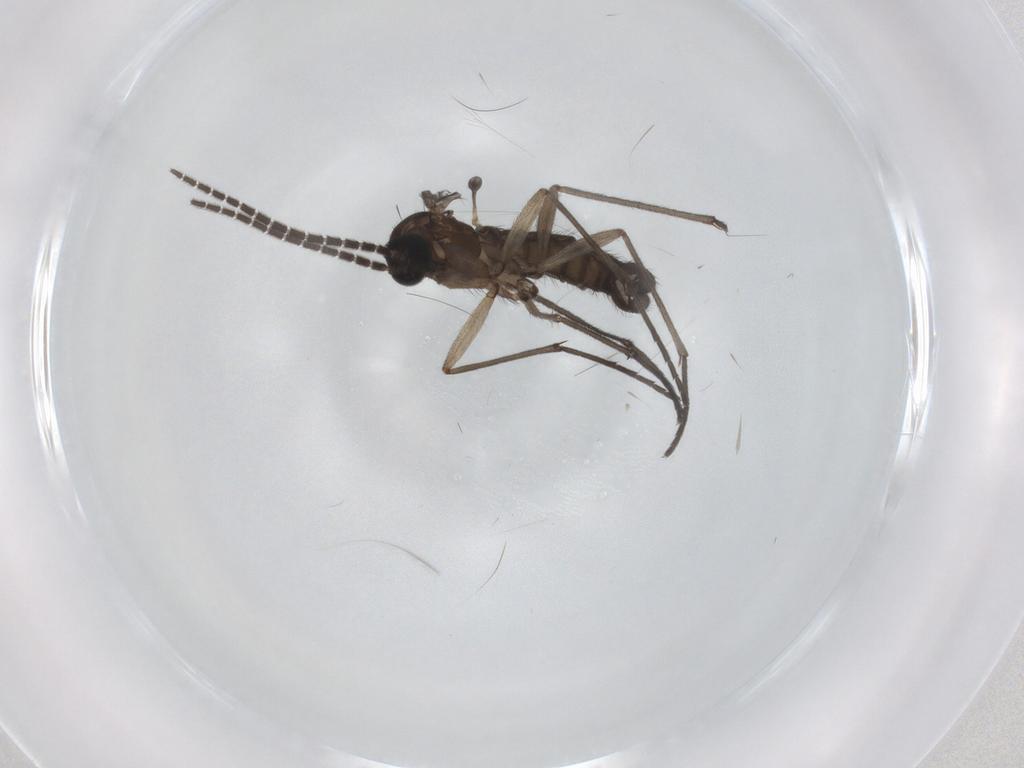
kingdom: Animalia
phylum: Arthropoda
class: Insecta
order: Diptera
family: Cecidomyiidae
